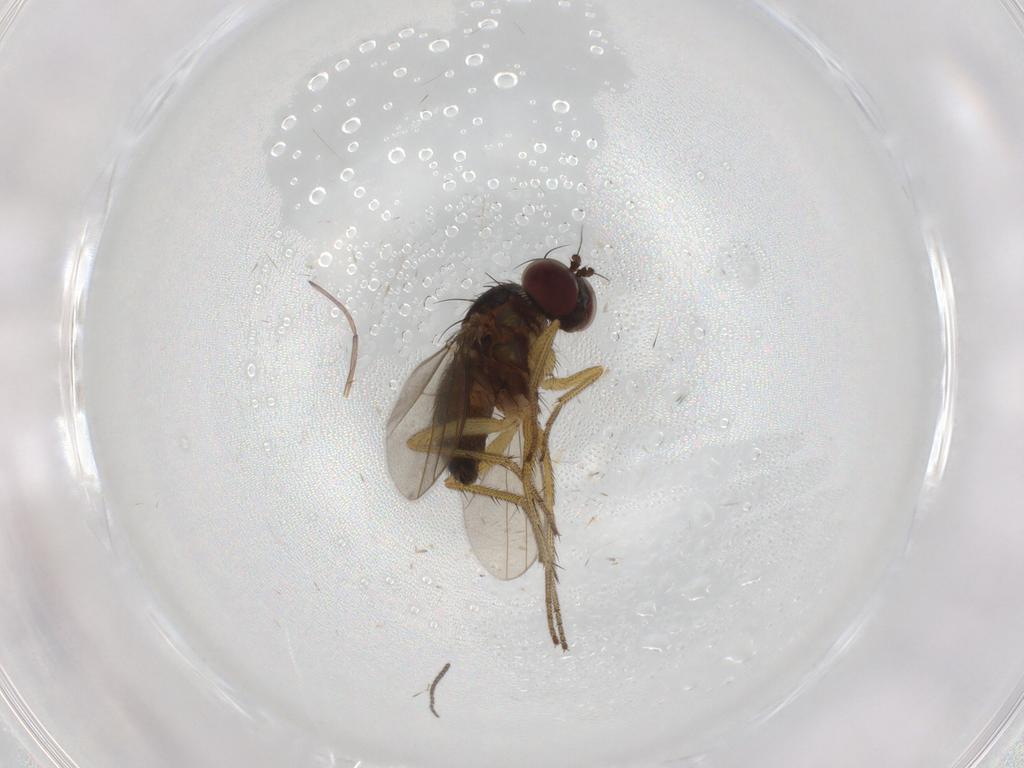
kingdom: Animalia
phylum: Arthropoda
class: Insecta
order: Diptera
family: Sciaridae
